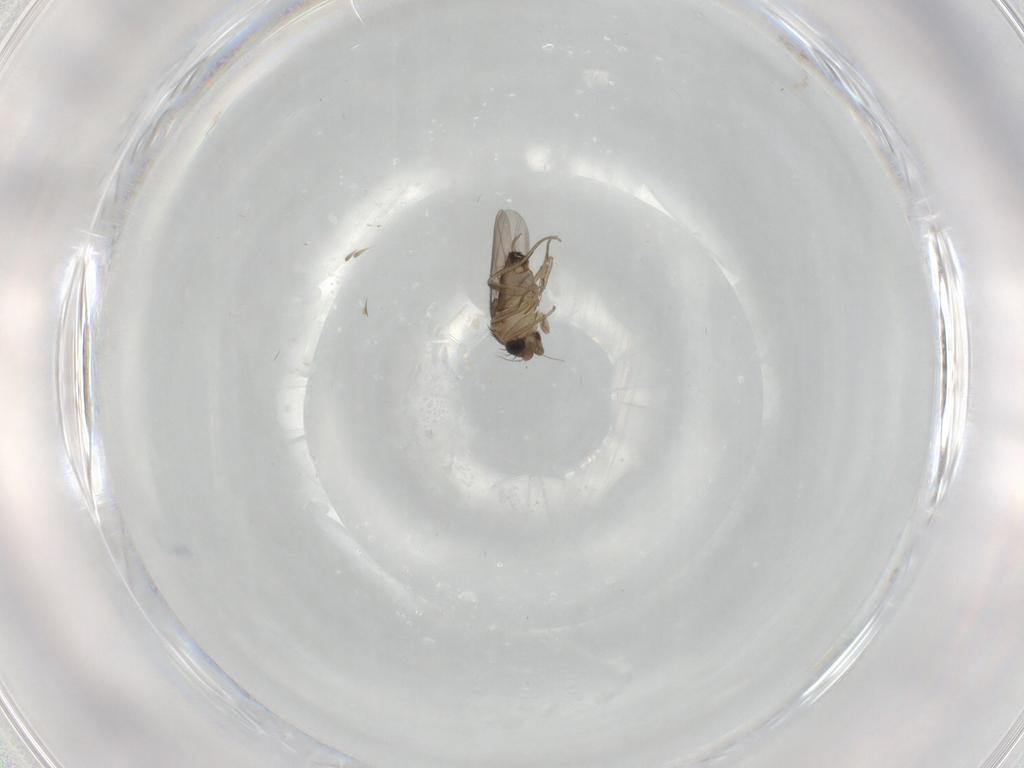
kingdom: Animalia
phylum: Arthropoda
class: Insecta
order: Diptera
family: Phoridae
